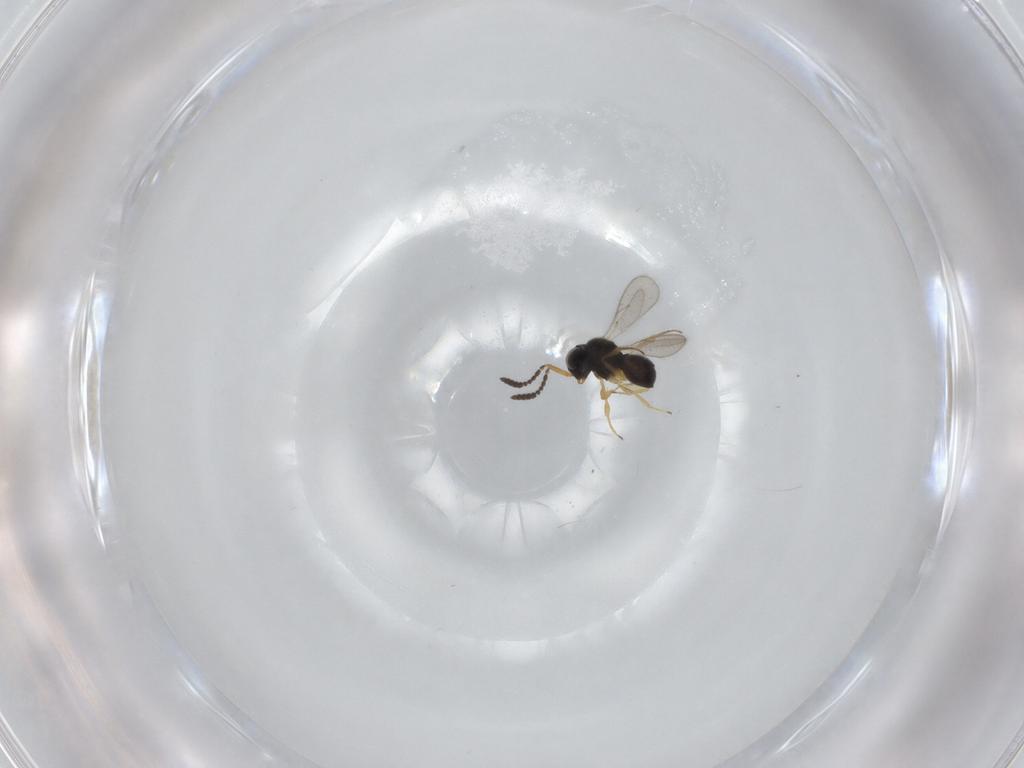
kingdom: Animalia
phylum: Arthropoda
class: Insecta
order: Hymenoptera
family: Scelionidae
